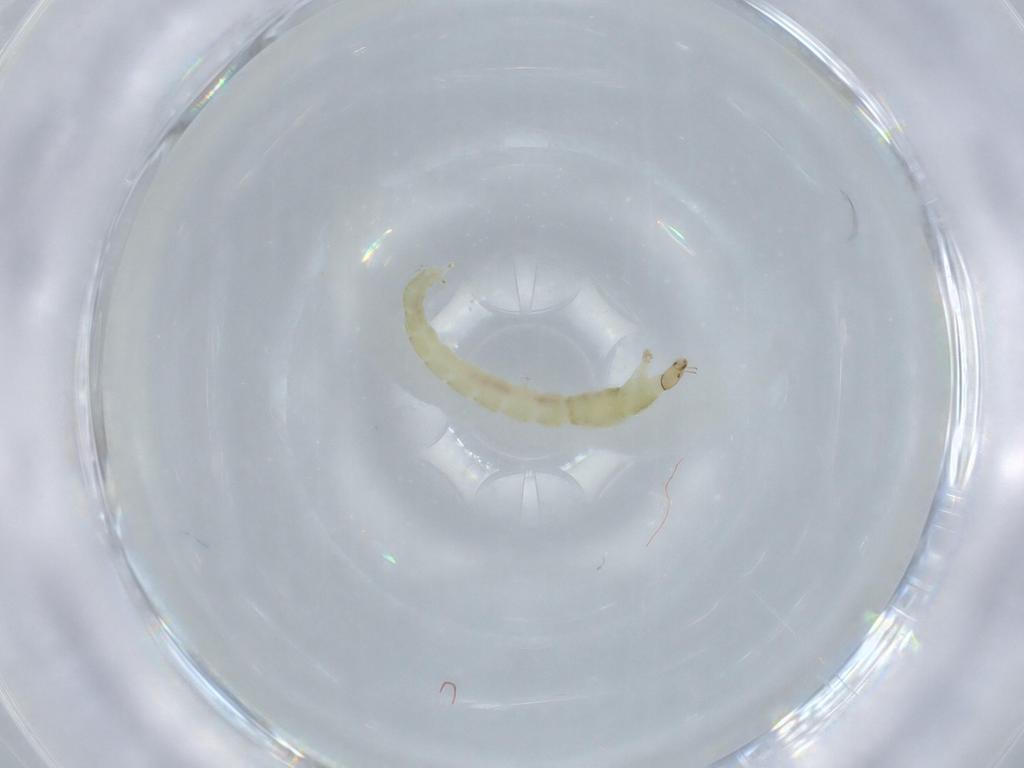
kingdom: Animalia
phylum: Arthropoda
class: Insecta
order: Diptera
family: Chironomidae
